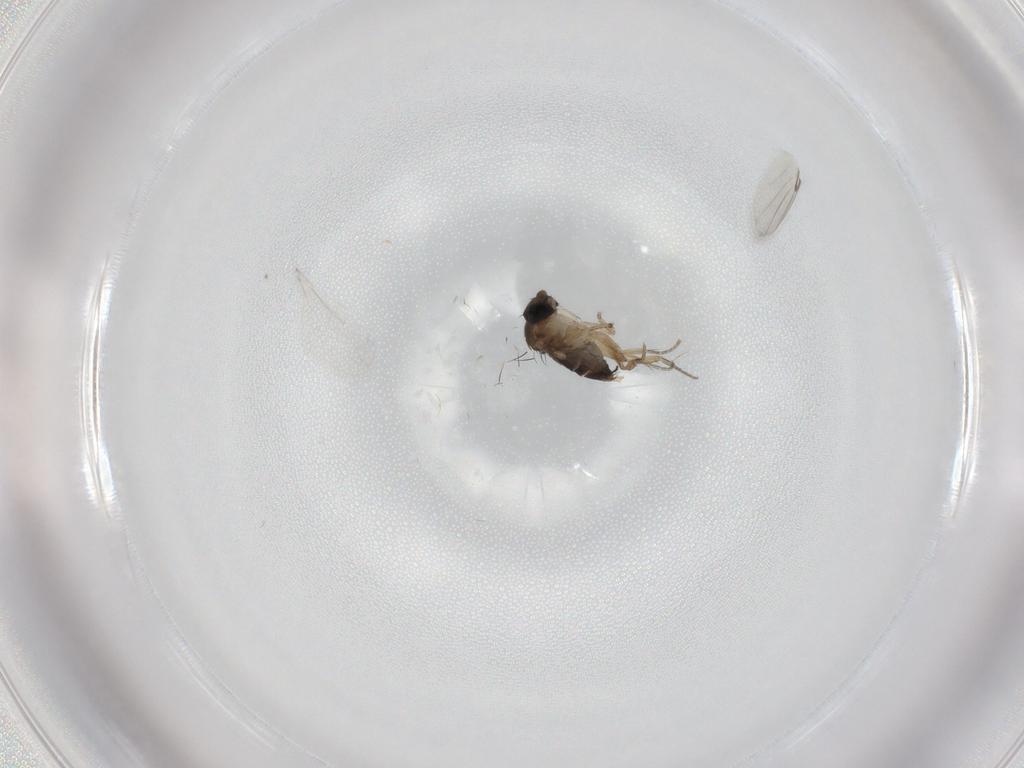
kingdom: Animalia
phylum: Arthropoda
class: Insecta
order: Diptera
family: Phoridae
